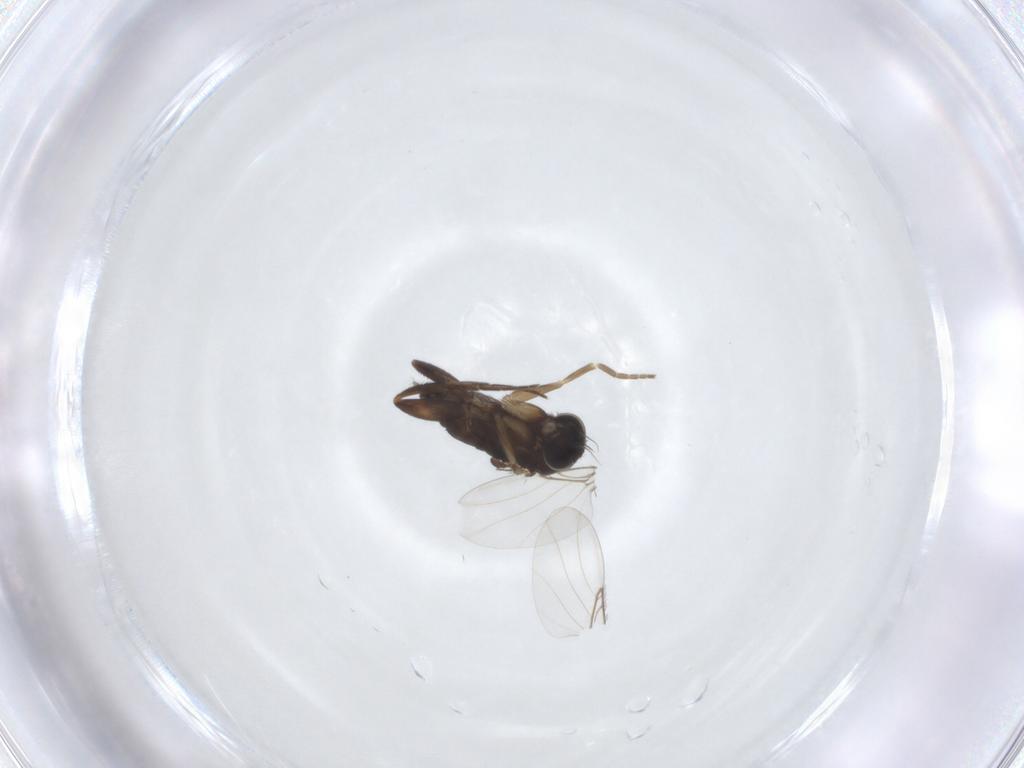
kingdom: Animalia
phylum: Arthropoda
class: Insecta
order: Diptera
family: Phoridae
